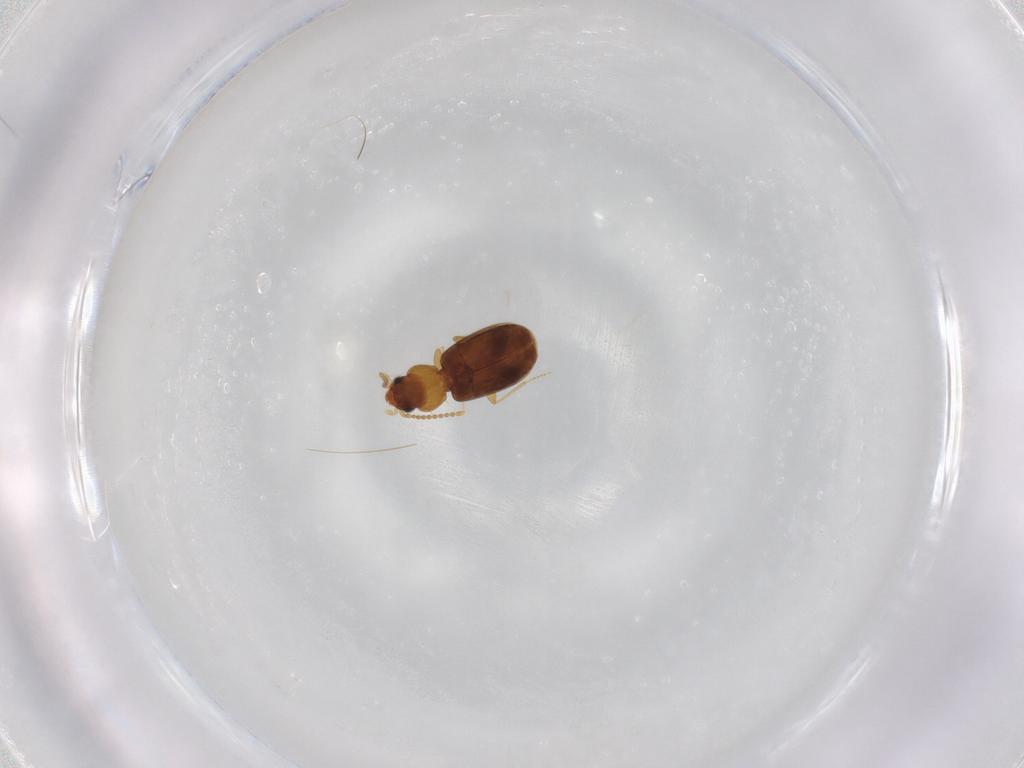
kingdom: Animalia
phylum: Arthropoda
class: Insecta
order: Coleoptera
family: Carabidae
